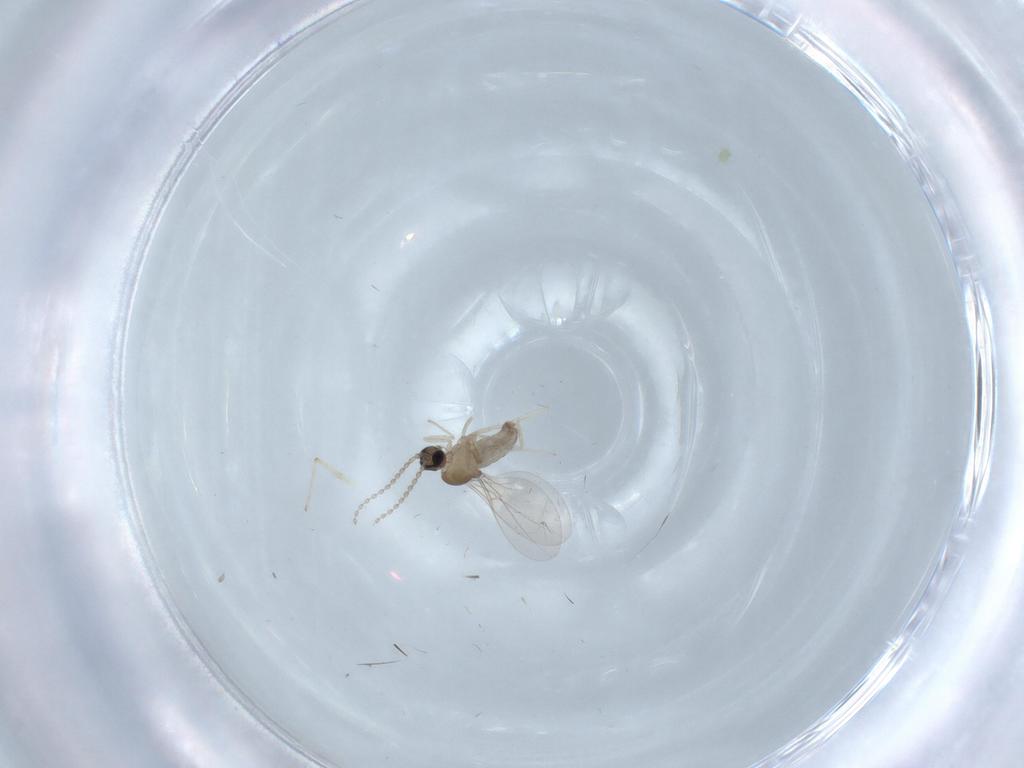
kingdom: Animalia
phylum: Arthropoda
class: Insecta
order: Diptera
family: Cecidomyiidae
